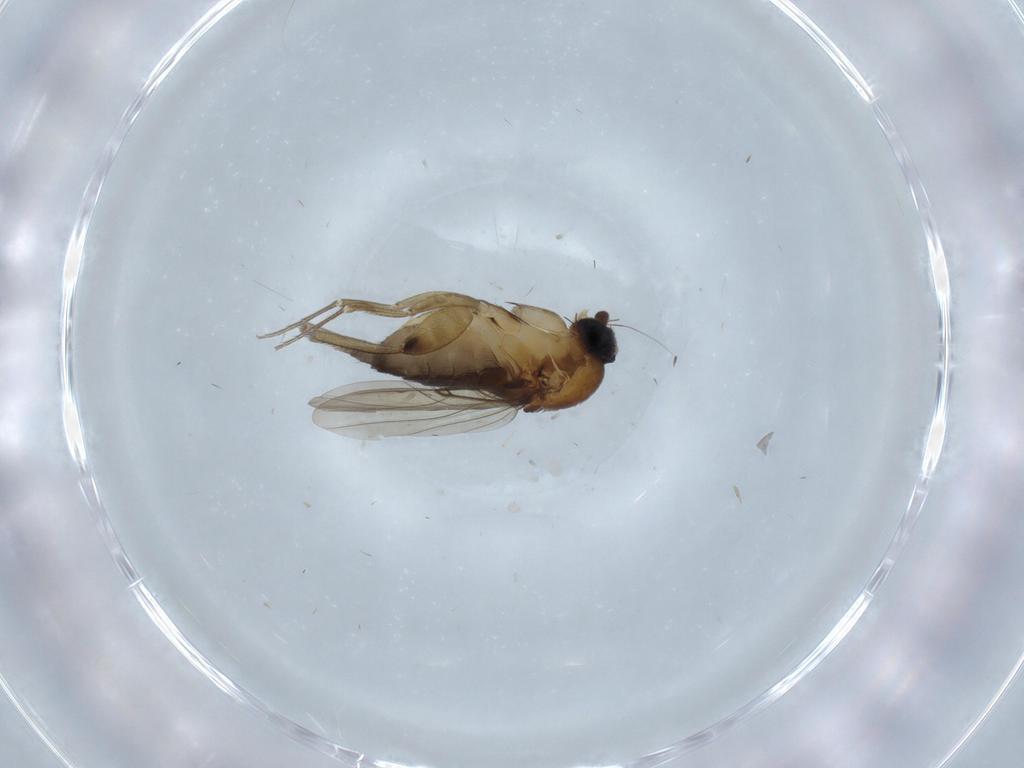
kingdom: Animalia
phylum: Arthropoda
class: Insecta
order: Diptera
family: Phoridae
